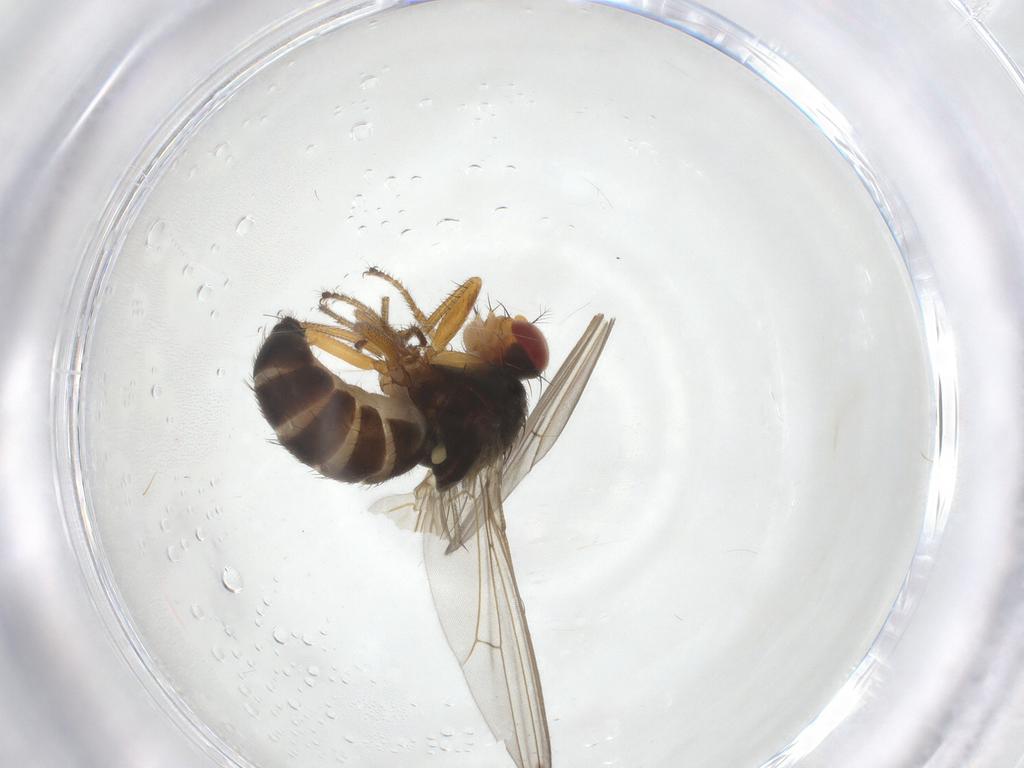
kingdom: Animalia
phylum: Arthropoda
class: Insecta
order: Diptera
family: Drosophilidae
